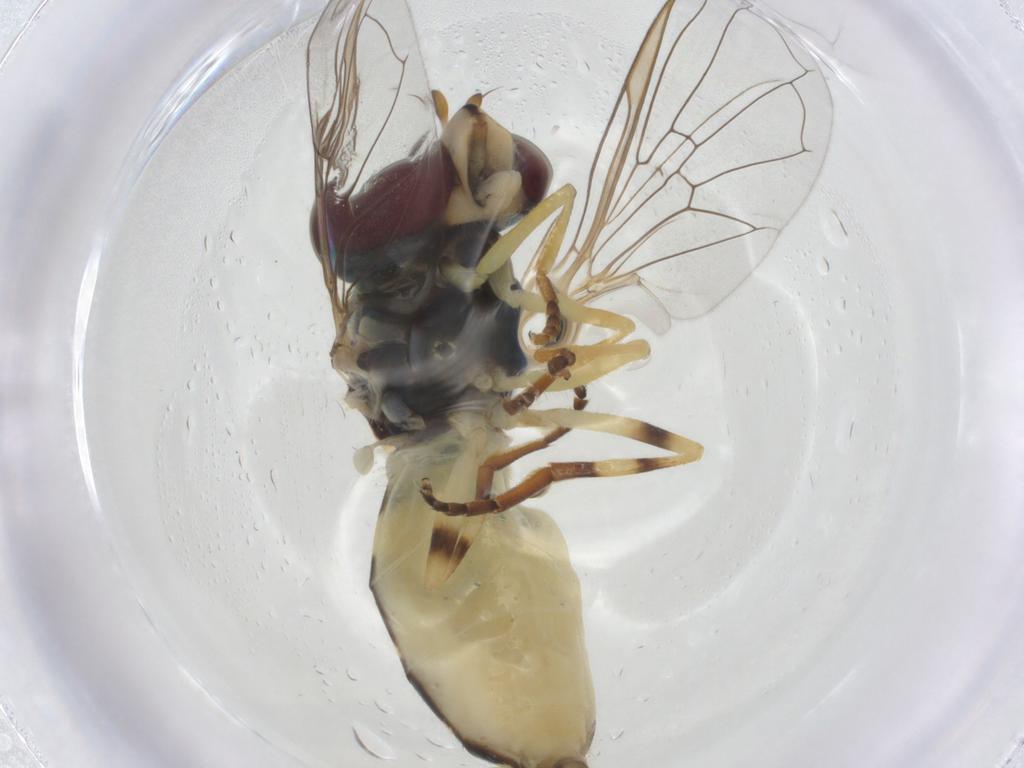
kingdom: Animalia
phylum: Arthropoda
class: Insecta
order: Diptera
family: Syrphidae
